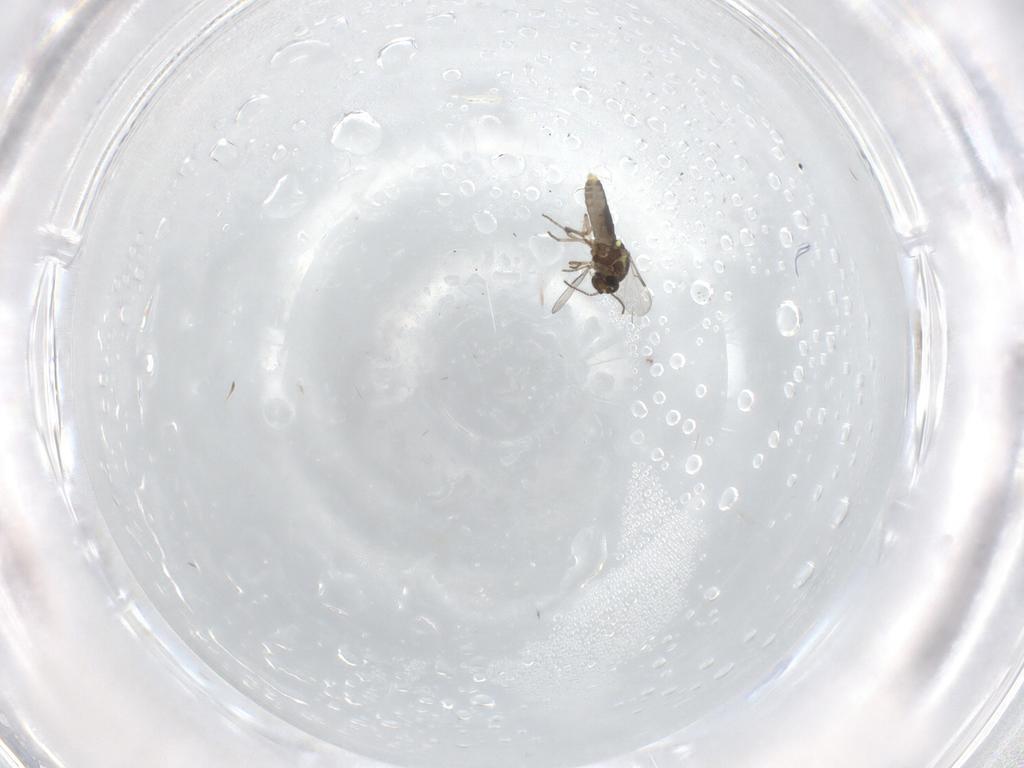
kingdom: Animalia
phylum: Arthropoda
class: Insecta
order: Diptera
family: Ceratopogonidae
